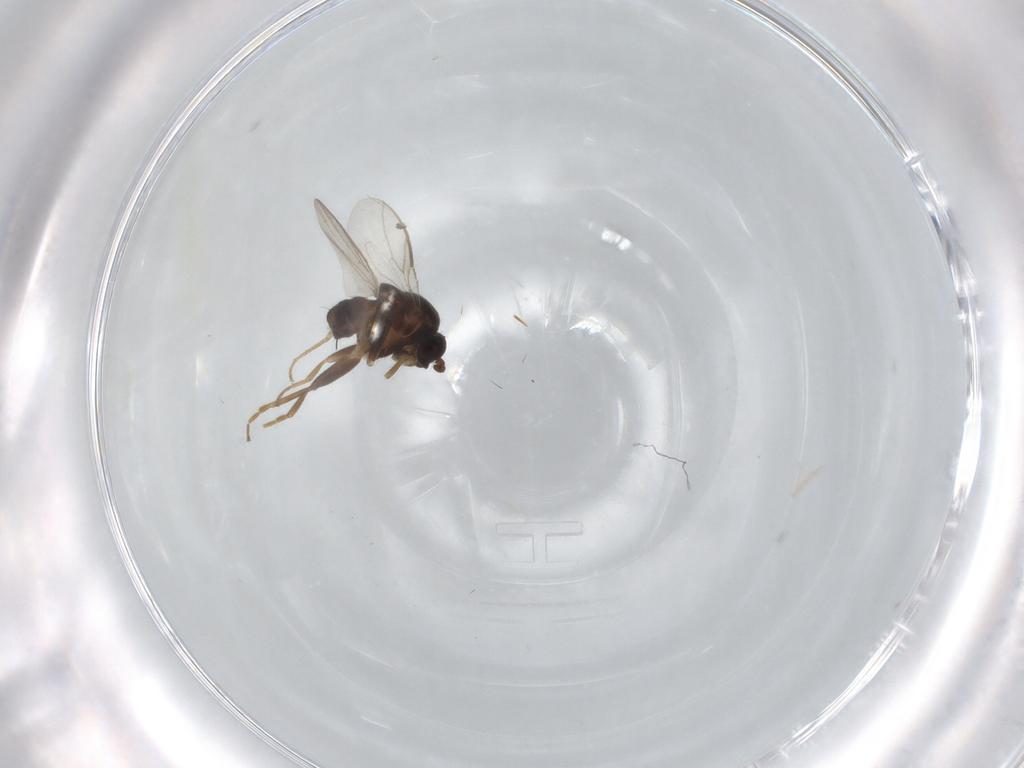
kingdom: Animalia
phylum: Arthropoda
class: Insecta
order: Diptera
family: Sphaeroceridae
